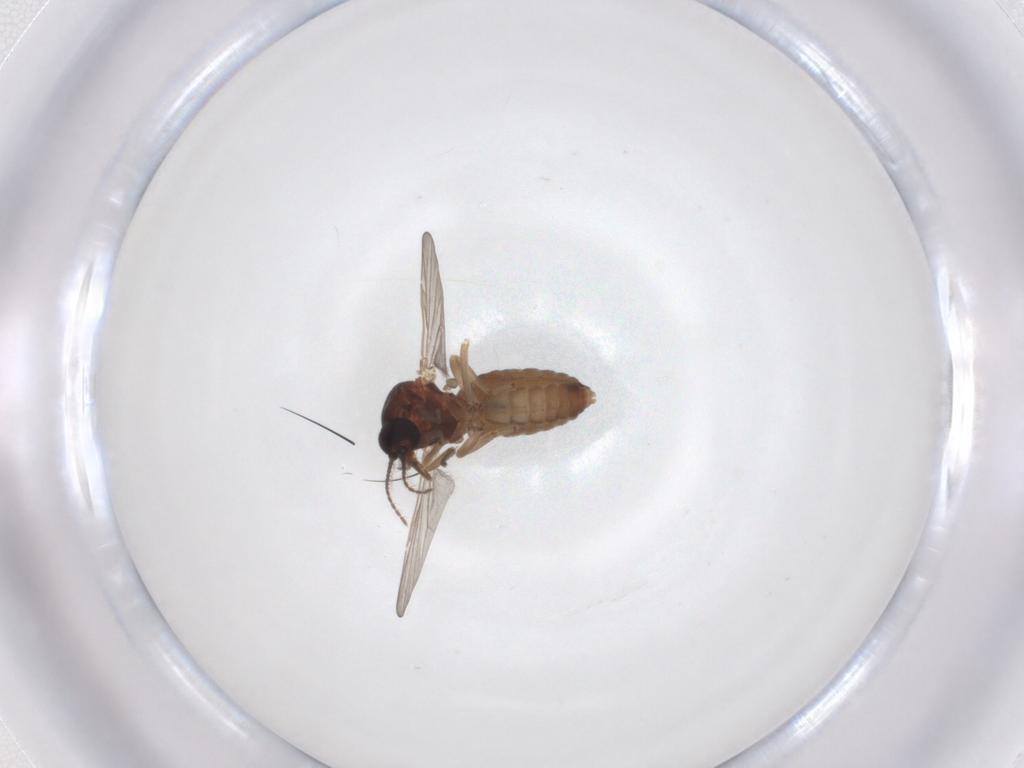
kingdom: Animalia
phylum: Arthropoda
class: Insecta
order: Diptera
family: Ceratopogonidae
